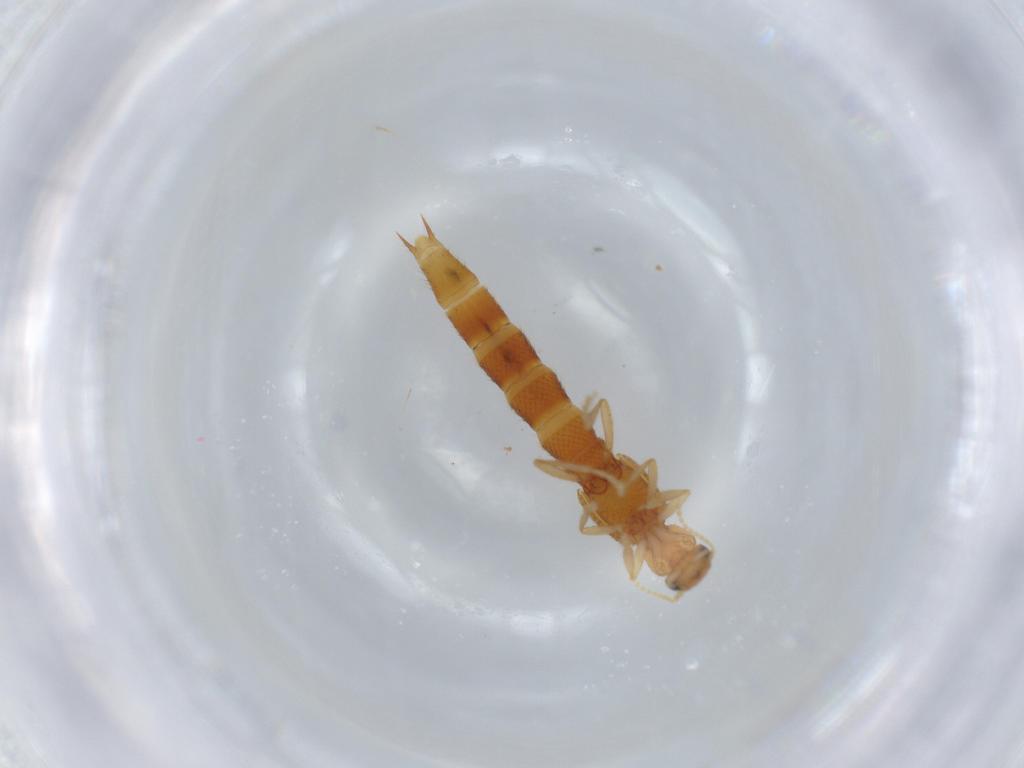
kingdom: Animalia
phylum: Arthropoda
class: Insecta
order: Coleoptera
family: Staphylinidae
